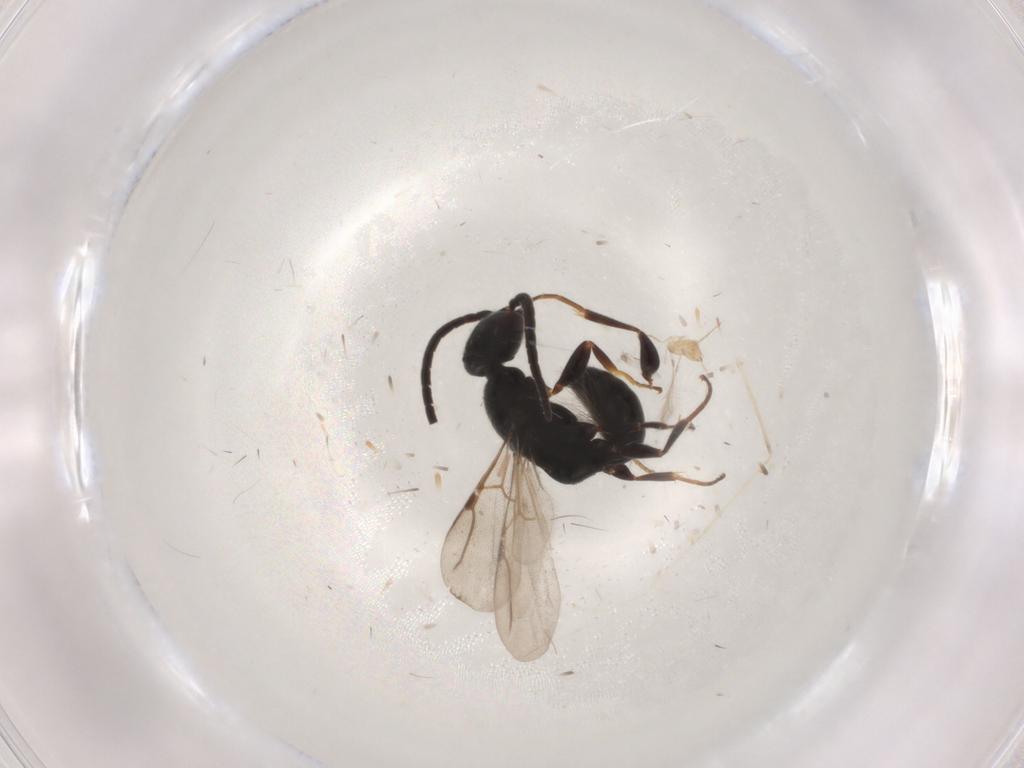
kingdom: Animalia
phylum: Arthropoda
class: Insecta
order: Hymenoptera
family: Bethylidae
